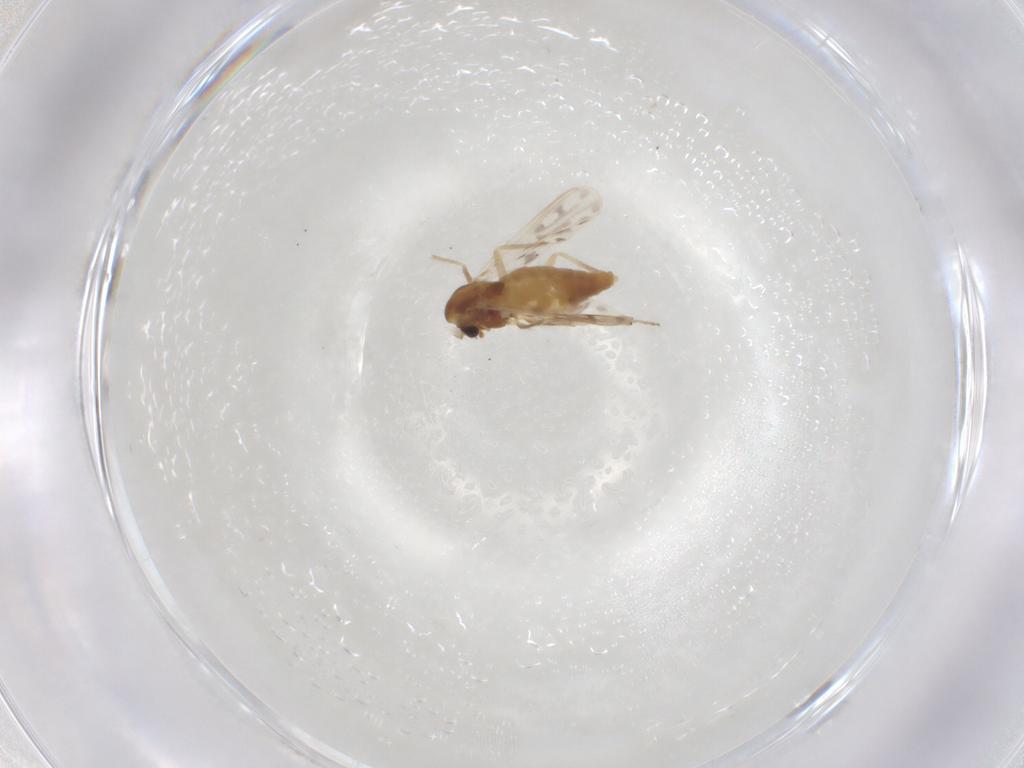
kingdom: Animalia
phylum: Arthropoda
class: Insecta
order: Diptera
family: Chironomidae
